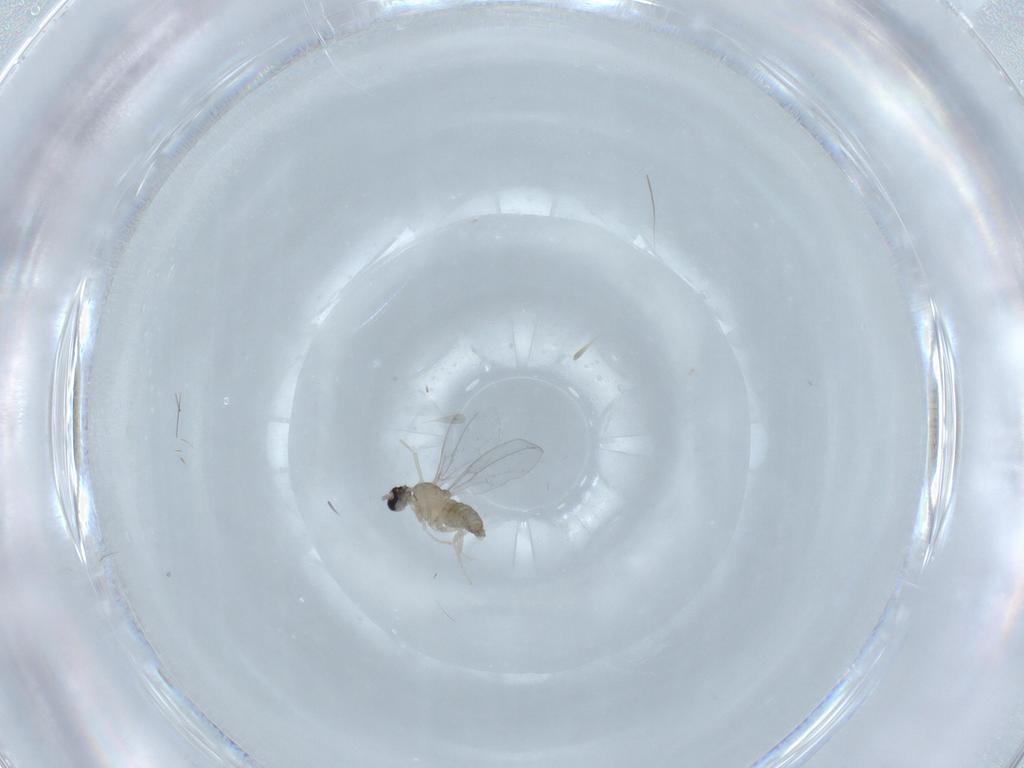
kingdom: Animalia
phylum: Arthropoda
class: Insecta
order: Diptera
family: Cecidomyiidae
